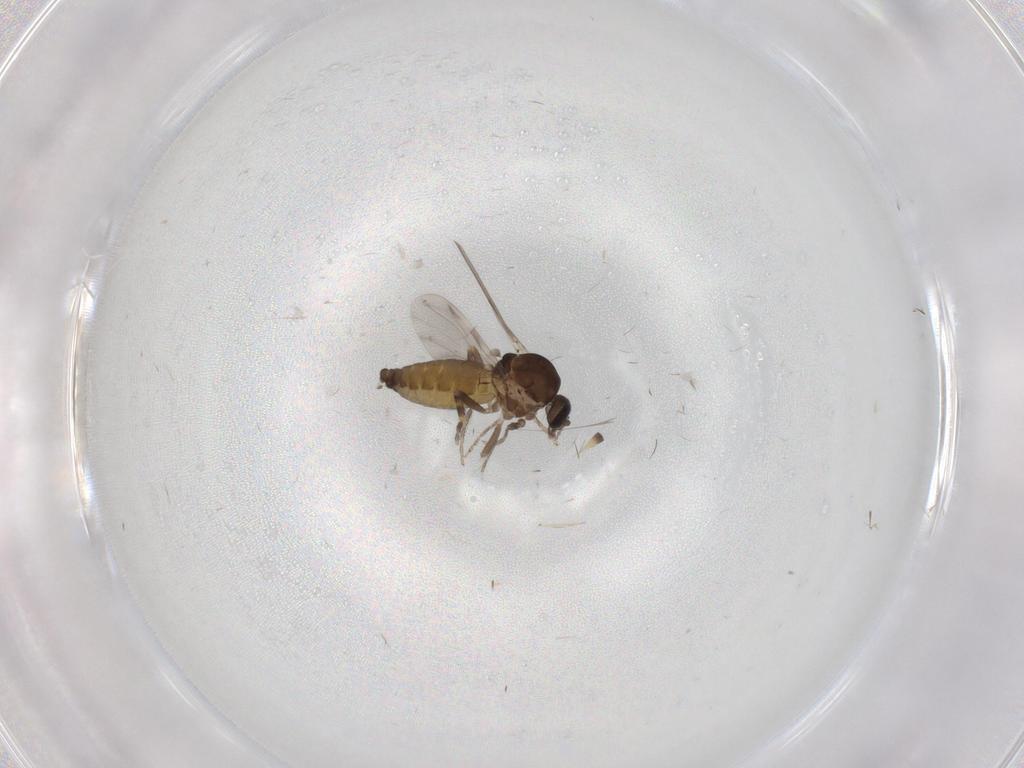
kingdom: Animalia
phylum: Arthropoda
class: Insecta
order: Diptera
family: Ceratopogonidae
